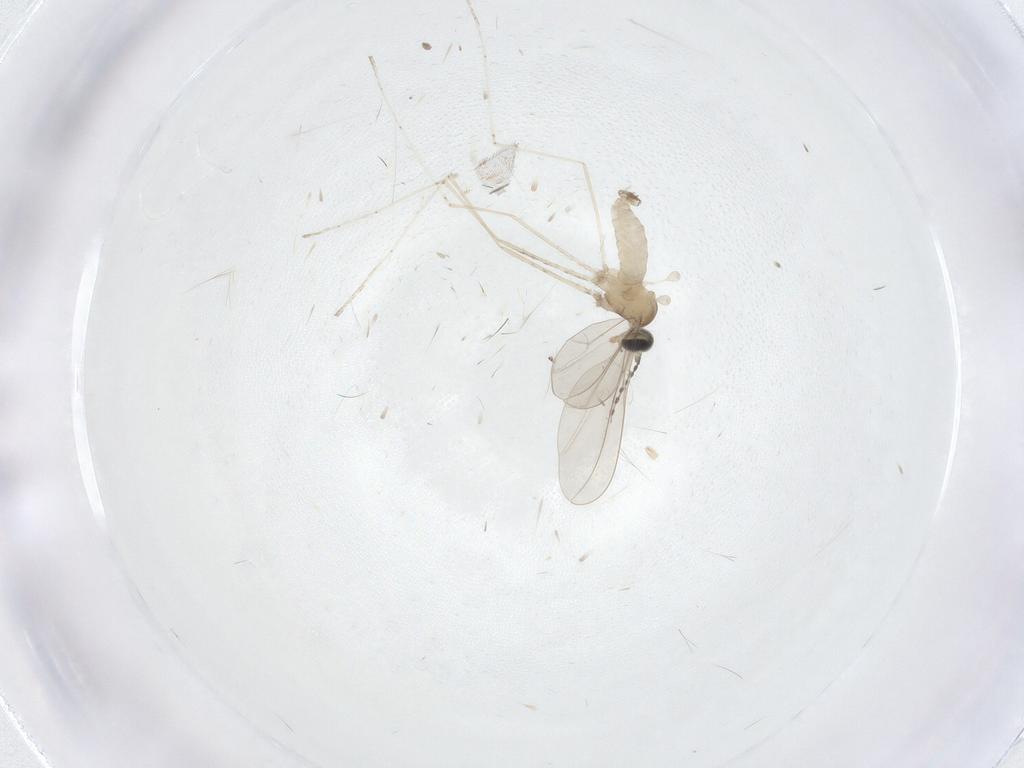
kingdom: Animalia
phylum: Arthropoda
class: Insecta
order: Diptera
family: Cecidomyiidae
